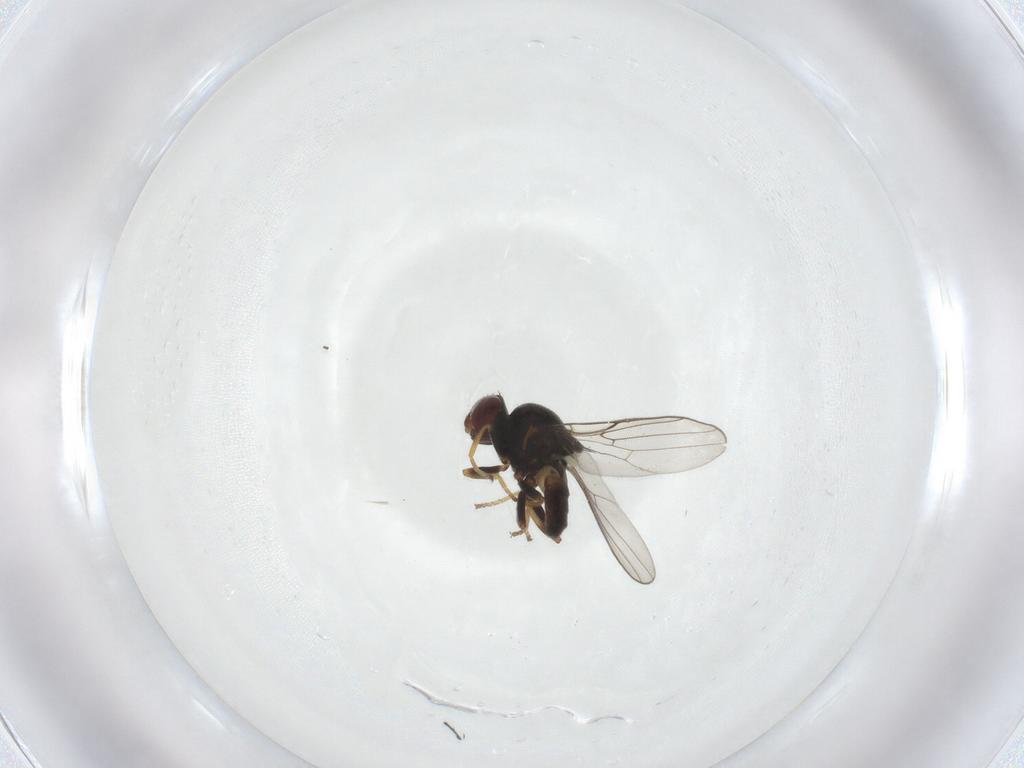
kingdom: Animalia
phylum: Arthropoda
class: Insecta
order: Diptera
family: Chloropidae
